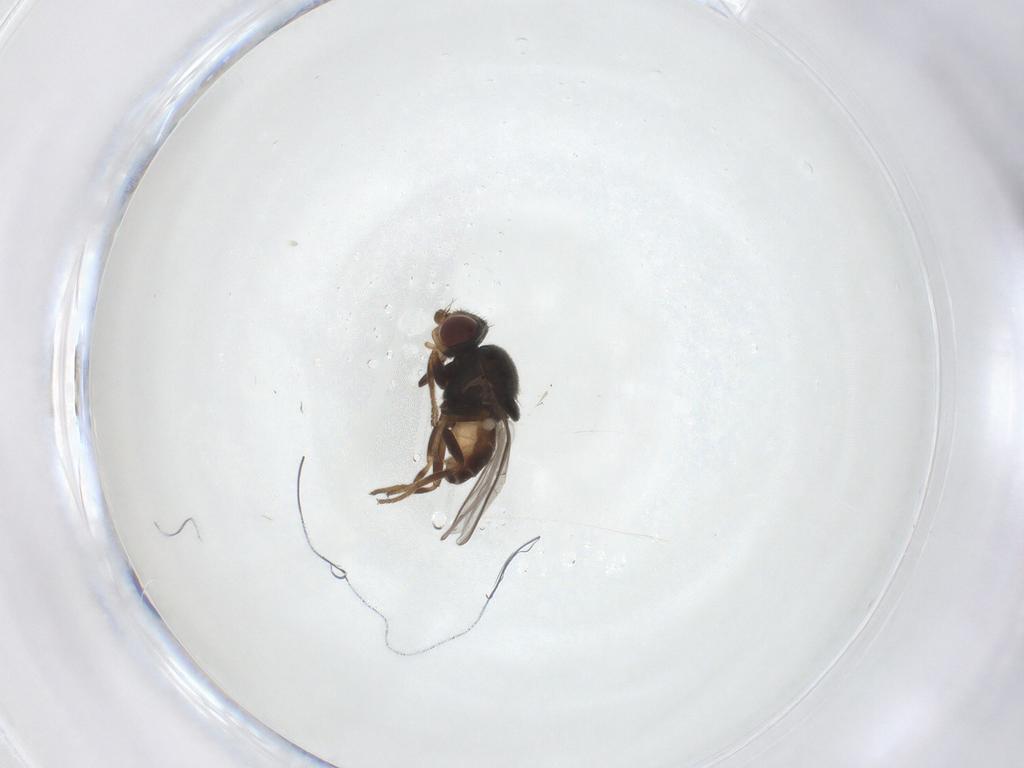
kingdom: Animalia
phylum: Arthropoda
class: Insecta
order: Diptera
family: Chloropidae
